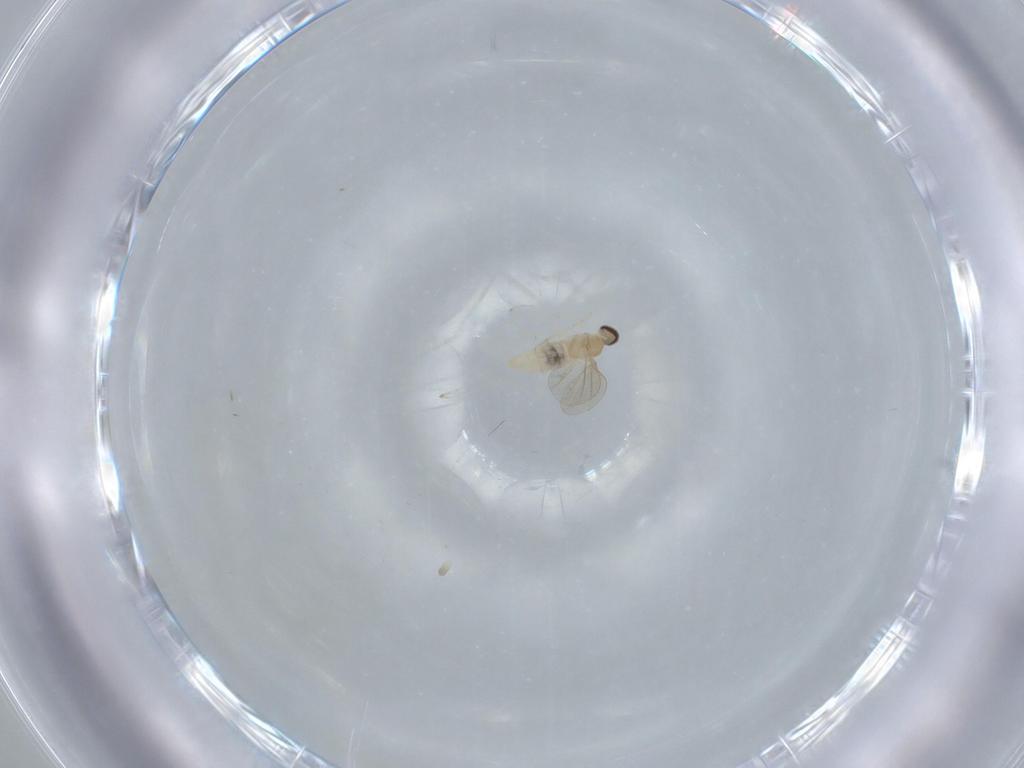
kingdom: Animalia
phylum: Arthropoda
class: Insecta
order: Diptera
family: Cecidomyiidae
